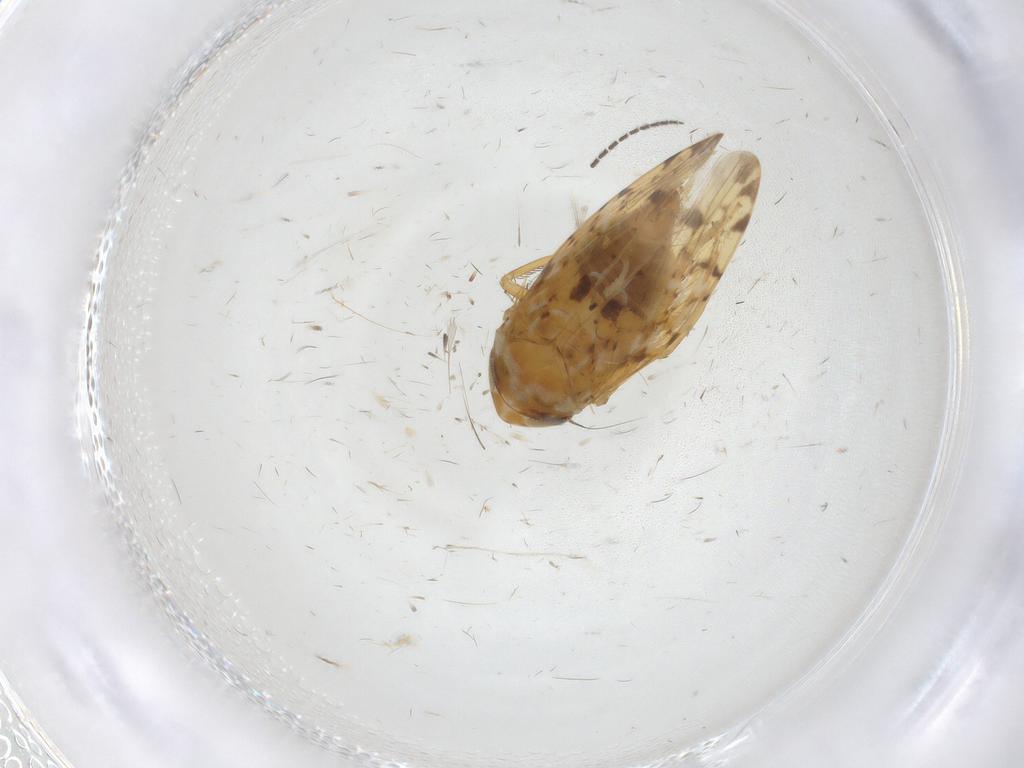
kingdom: Animalia
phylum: Arthropoda
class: Insecta
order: Hemiptera
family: Cicadellidae
